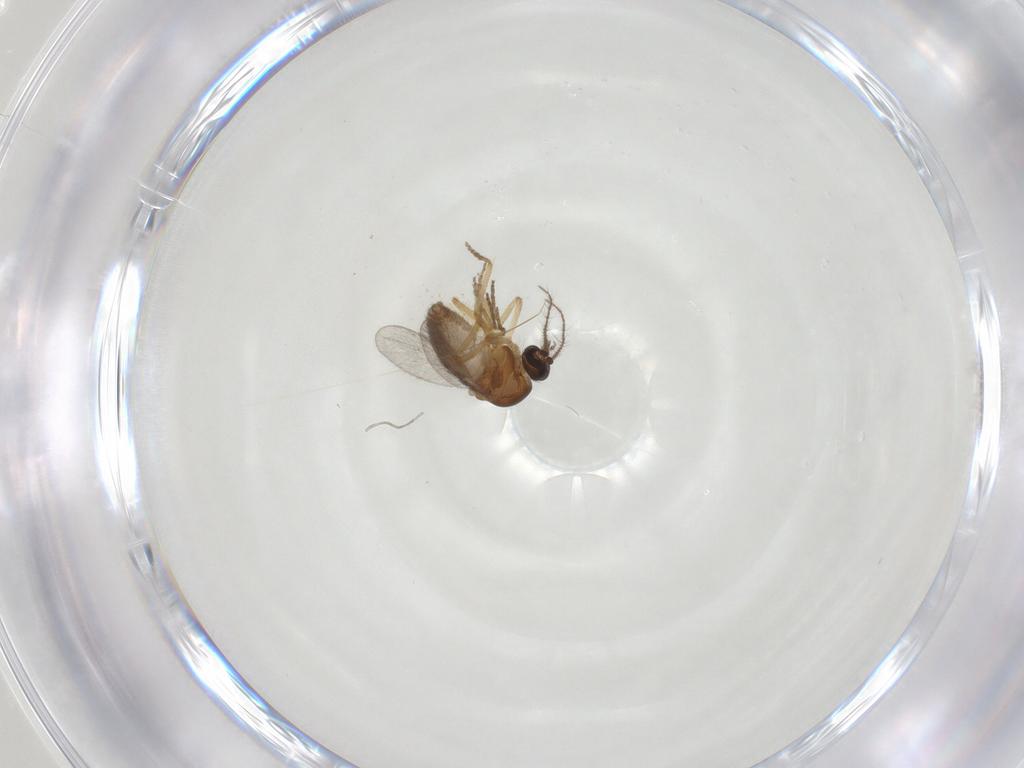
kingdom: Animalia
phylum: Arthropoda
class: Insecta
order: Diptera
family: Ceratopogonidae
